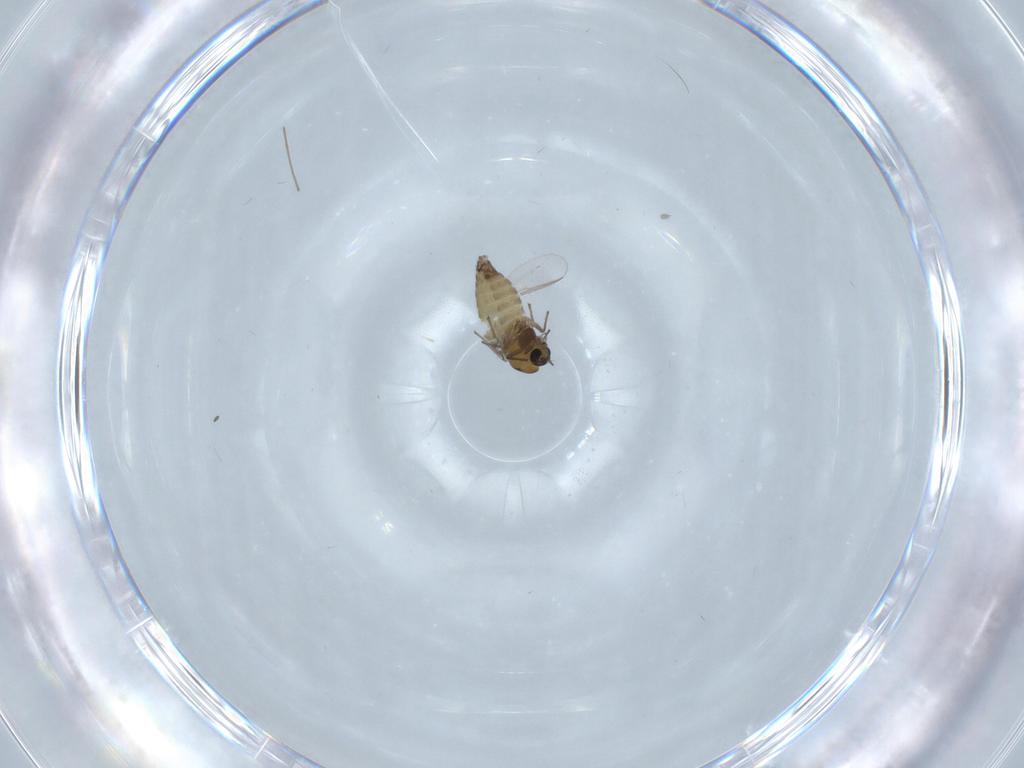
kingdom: Animalia
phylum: Arthropoda
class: Insecta
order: Diptera
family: Chironomidae
